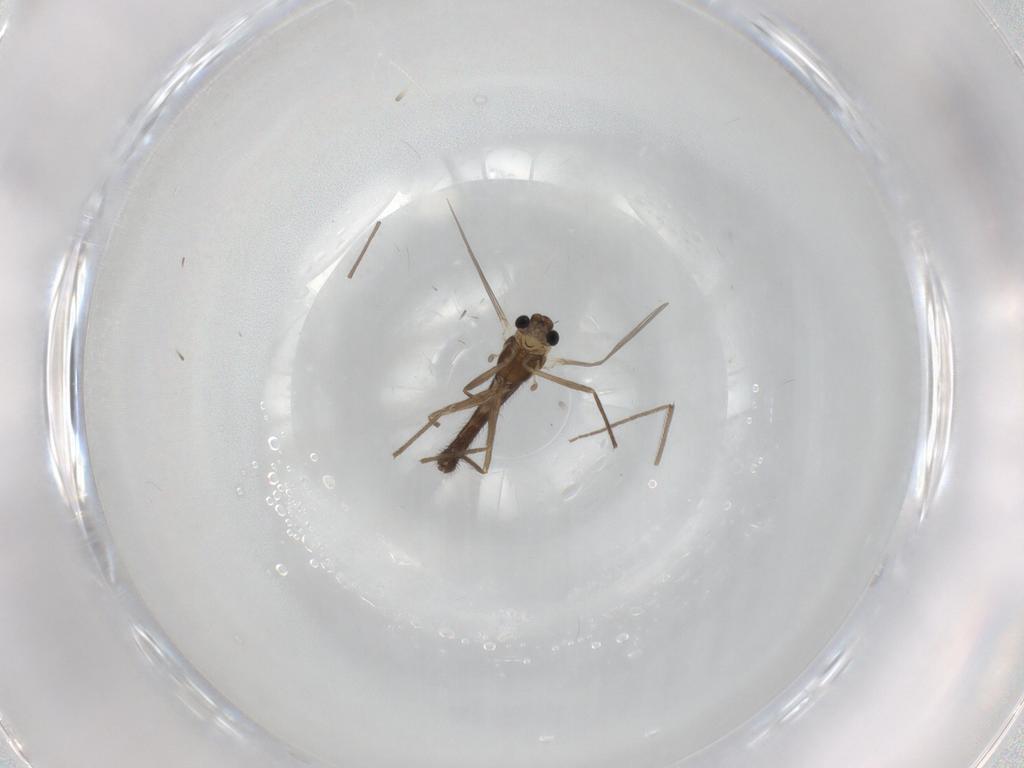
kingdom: Animalia
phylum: Arthropoda
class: Insecta
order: Diptera
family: Chironomidae
